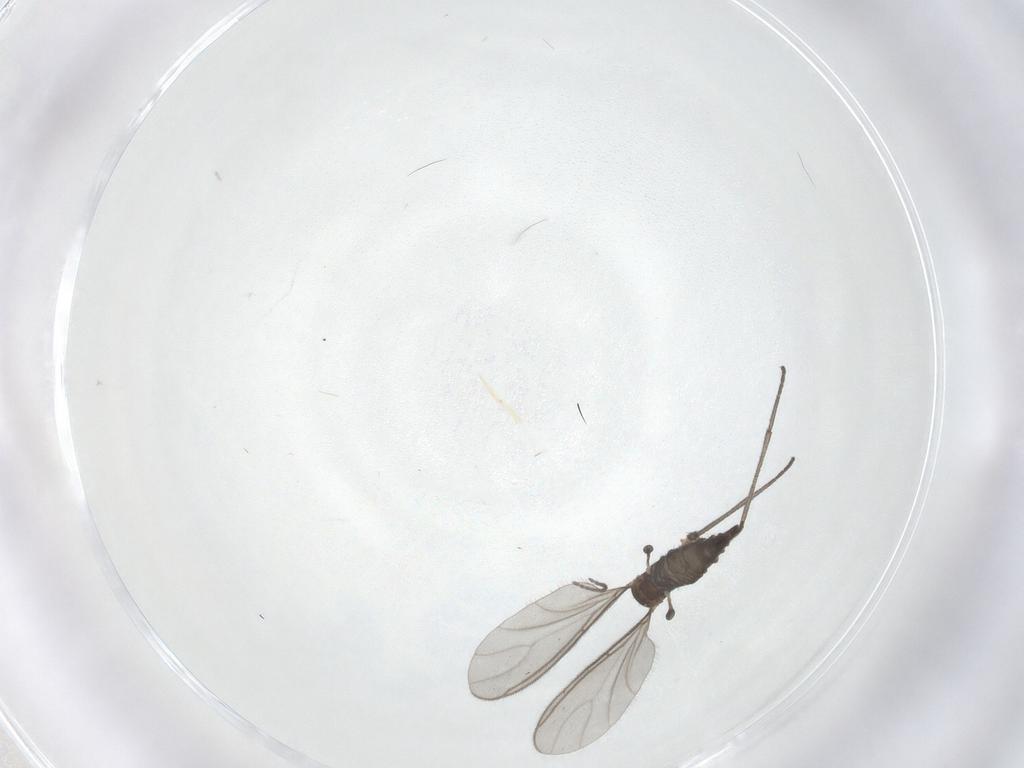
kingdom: Animalia
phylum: Arthropoda
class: Insecta
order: Diptera
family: Sciaridae
